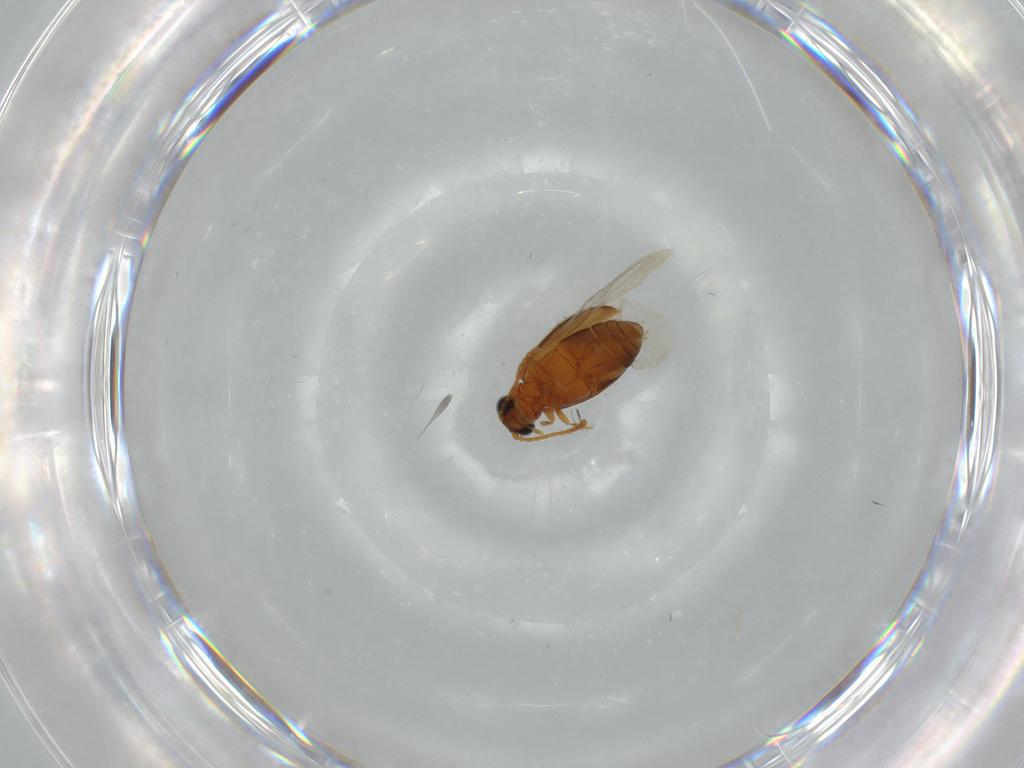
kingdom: Animalia
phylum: Arthropoda
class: Insecta
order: Coleoptera
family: Aderidae
